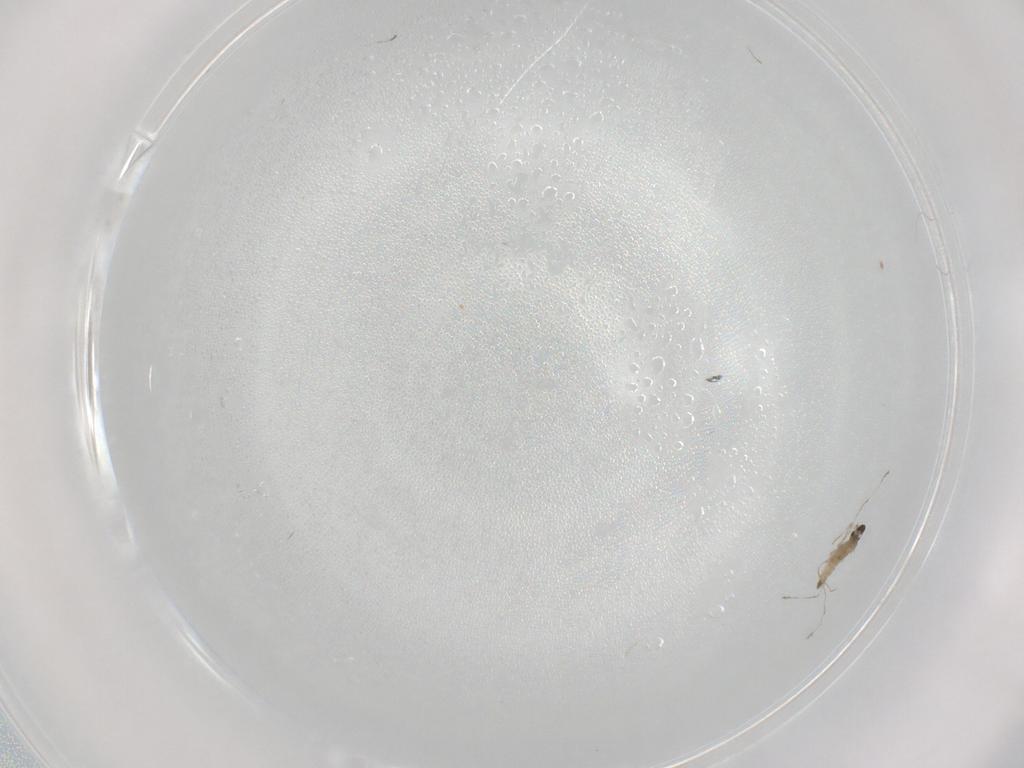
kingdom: Animalia
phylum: Arthropoda
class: Insecta
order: Diptera
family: Cecidomyiidae
